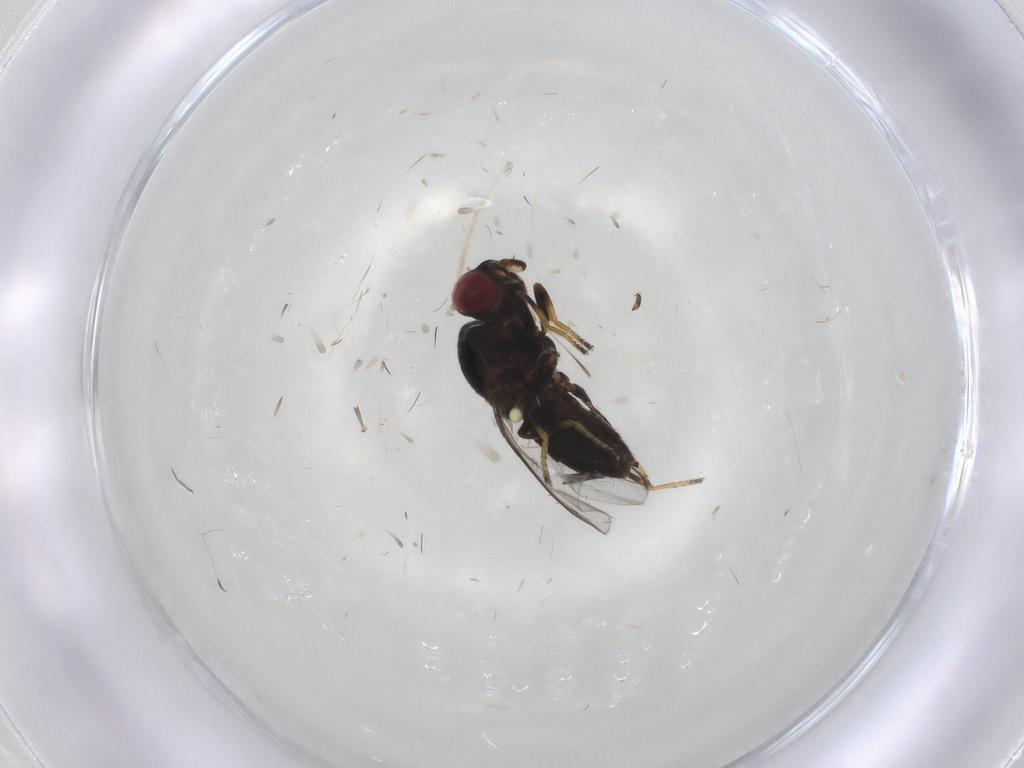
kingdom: Animalia
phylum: Arthropoda
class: Insecta
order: Diptera
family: Chloropidae
